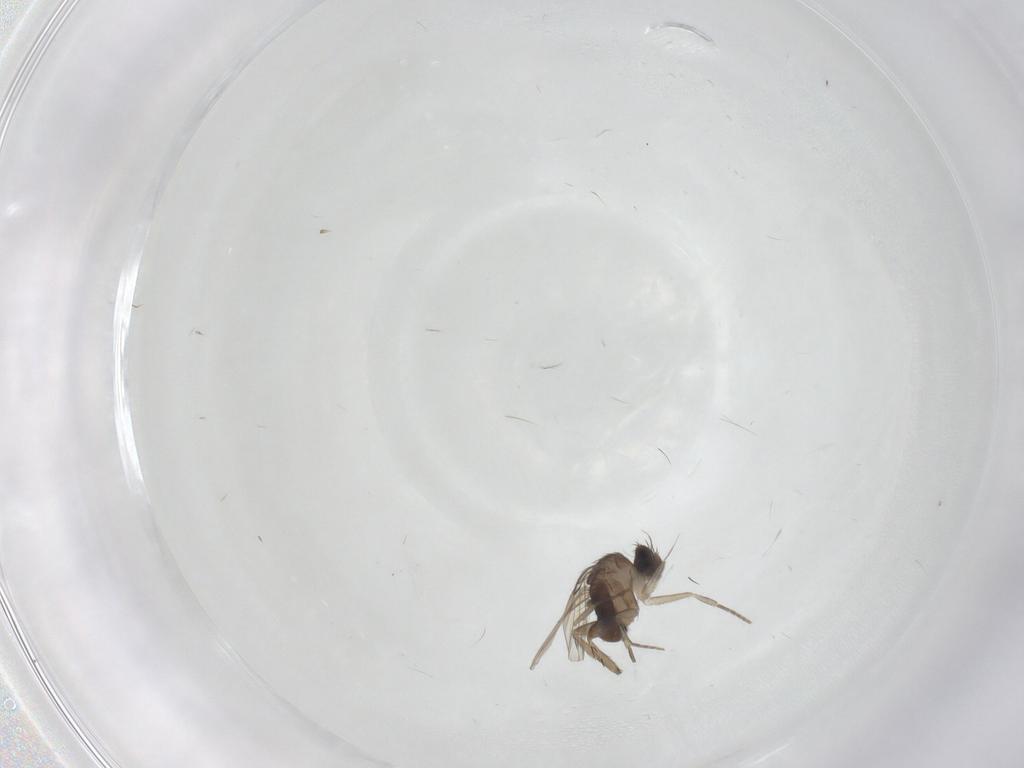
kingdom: Animalia
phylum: Arthropoda
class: Insecta
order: Diptera
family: Phoridae
